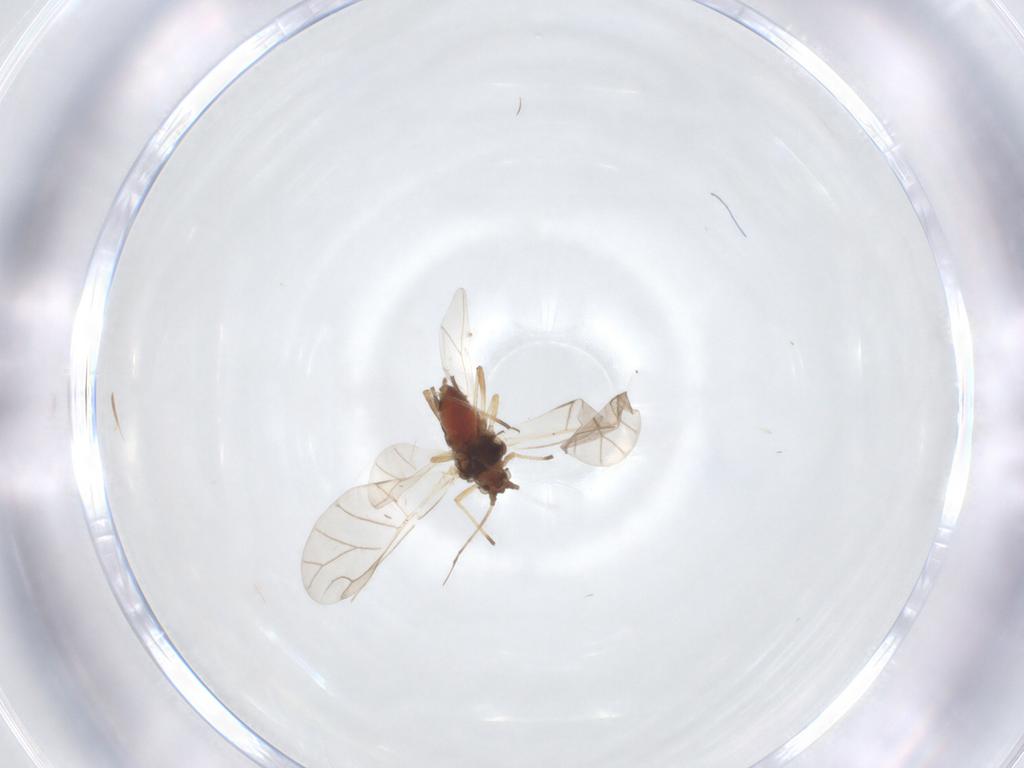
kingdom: Animalia
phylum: Arthropoda
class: Insecta
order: Hemiptera
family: Aphididae
